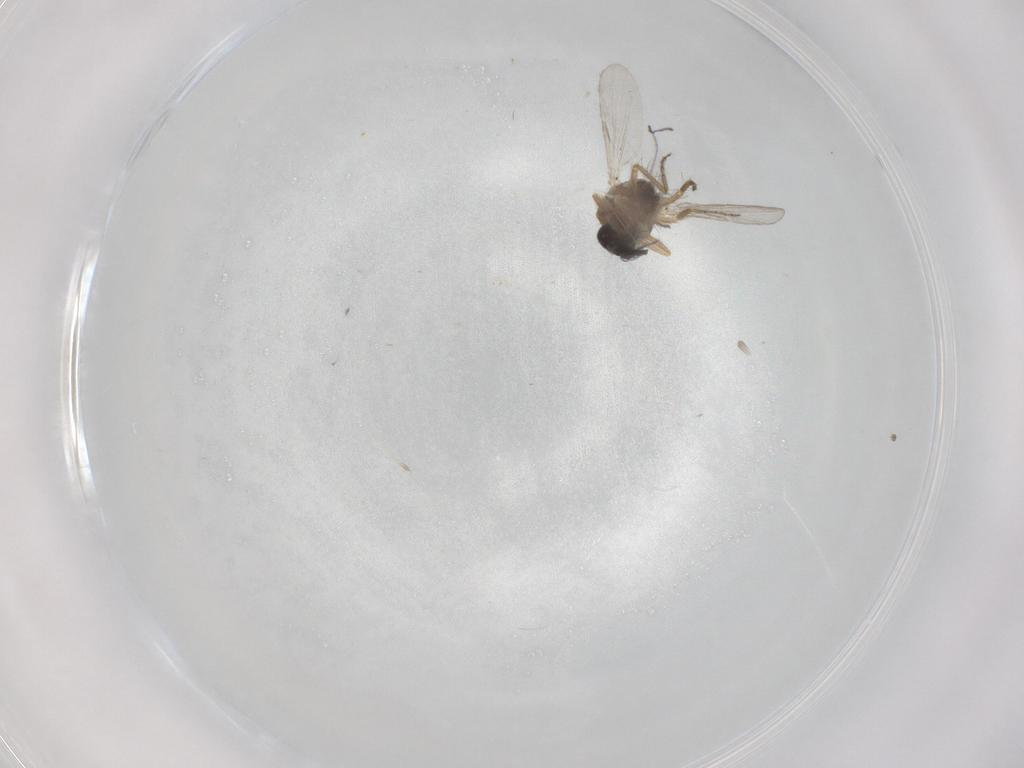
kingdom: Animalia
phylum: Arthropoda
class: Insecta
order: Diptera
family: Ceratopogonidae
